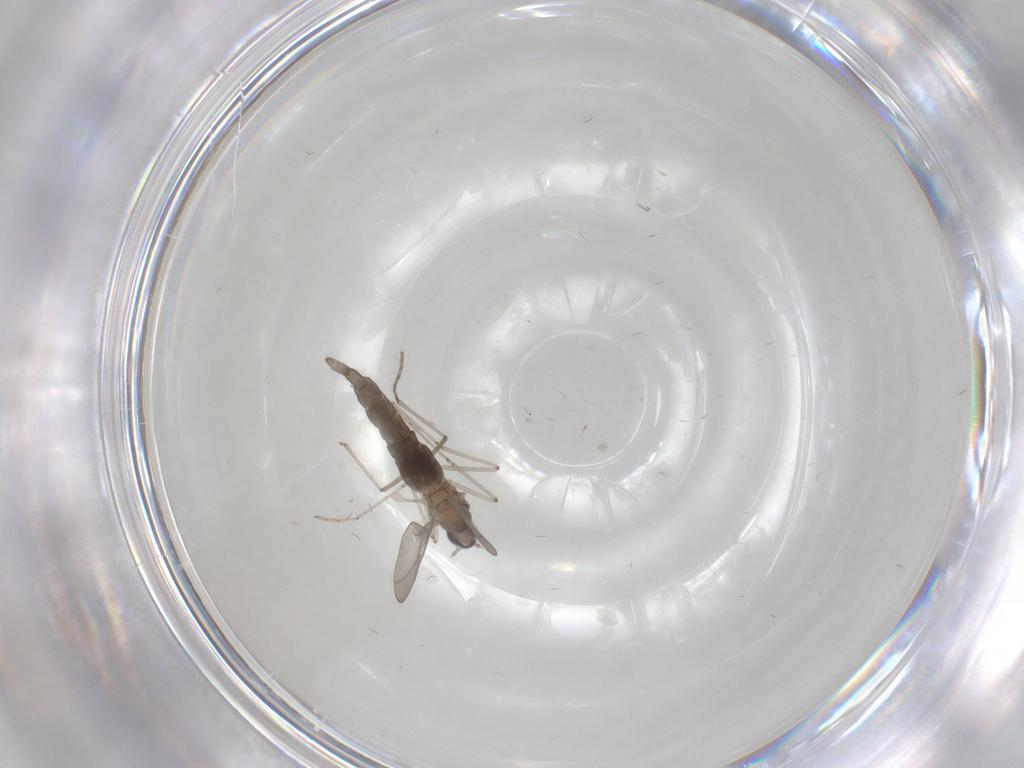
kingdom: Animalia
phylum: Arthropoda
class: Insecta
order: Diptera
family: Cecidomyiidae
